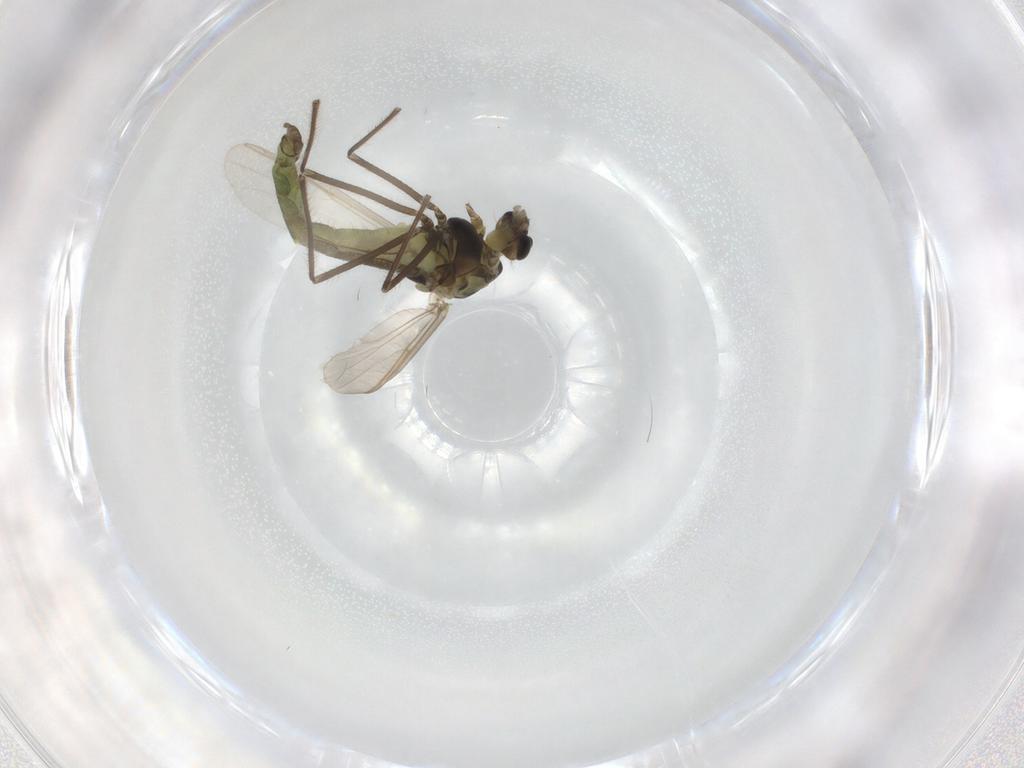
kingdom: Animalia
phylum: Arthropoda
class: Insecta
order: Diptera
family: Chironomidae
